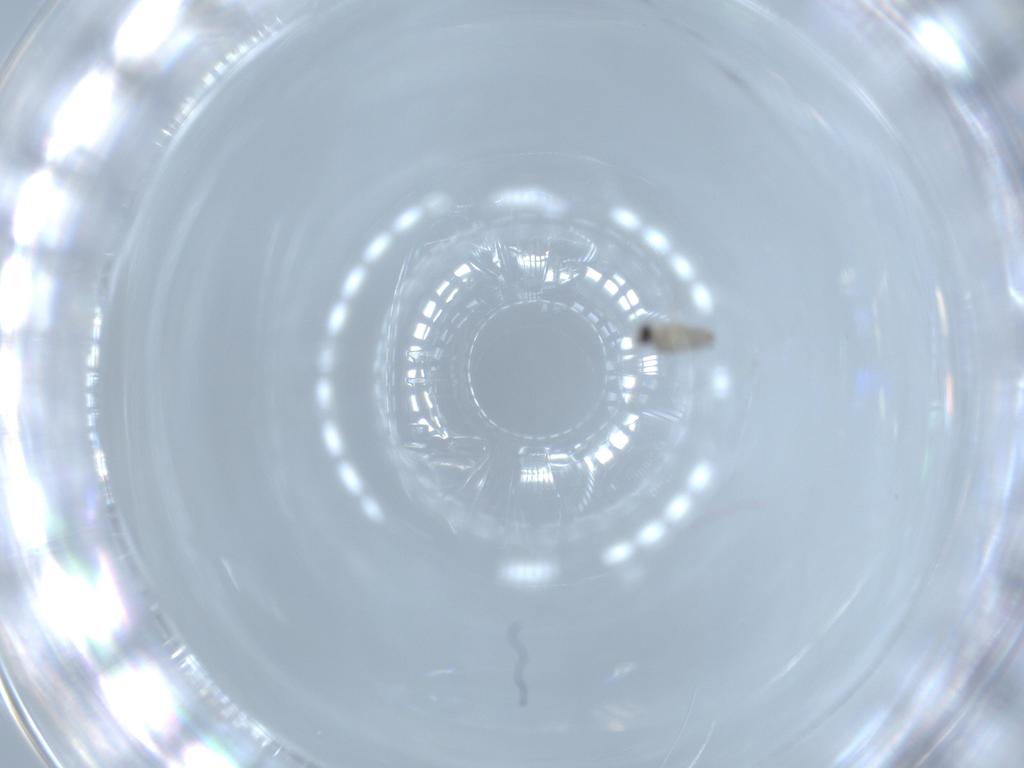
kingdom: Animalia
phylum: Arthropoda
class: Insecta
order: Diptera
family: Cecidomyiidae
